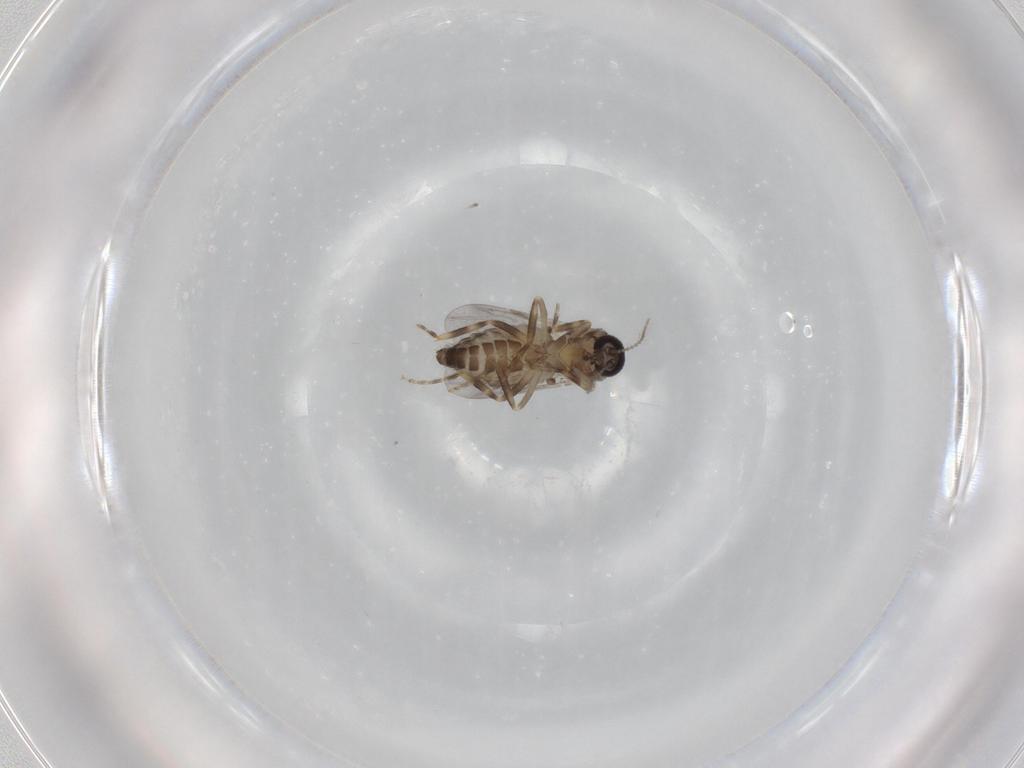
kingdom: Animalia
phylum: Arthropoda
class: Insecta
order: Diptera
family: Ceratopogonidae
